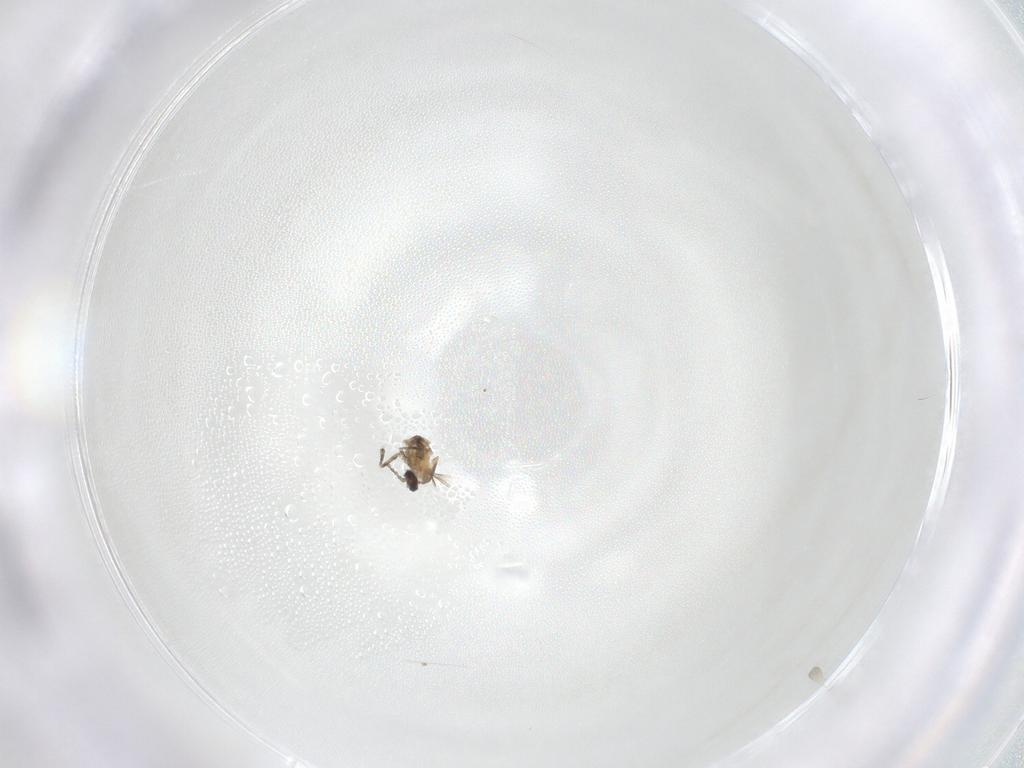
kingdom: Animalia
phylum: Arthropoda
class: Insecta
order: Diptera
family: Cecidomyiidae
